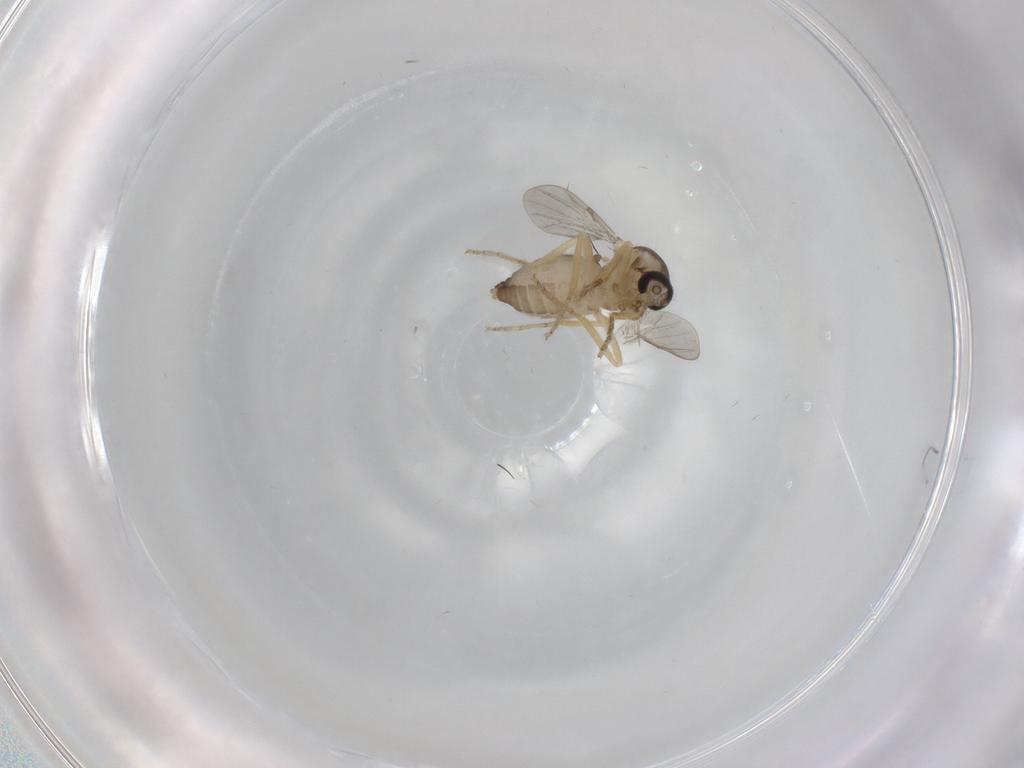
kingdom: Animalia
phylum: Arthropoda
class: Insecta
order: Diptera
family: Ceratopogonidae
